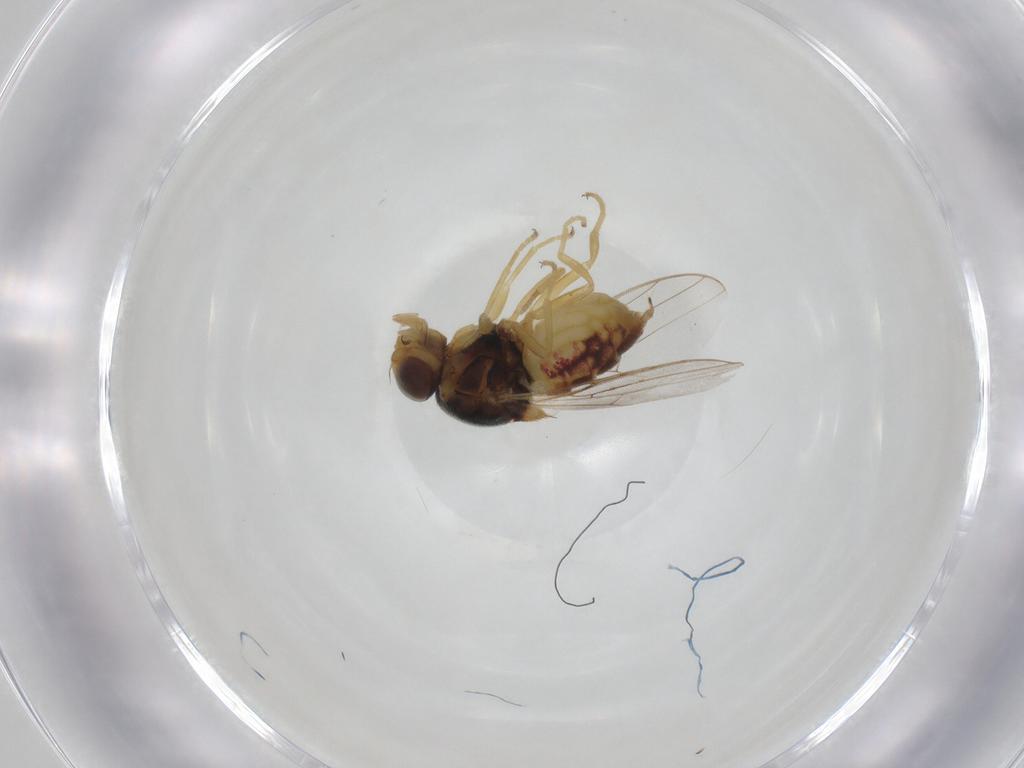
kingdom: Animalia
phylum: Arthropoda
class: Insecta
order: Diptera
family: Chloropidae
